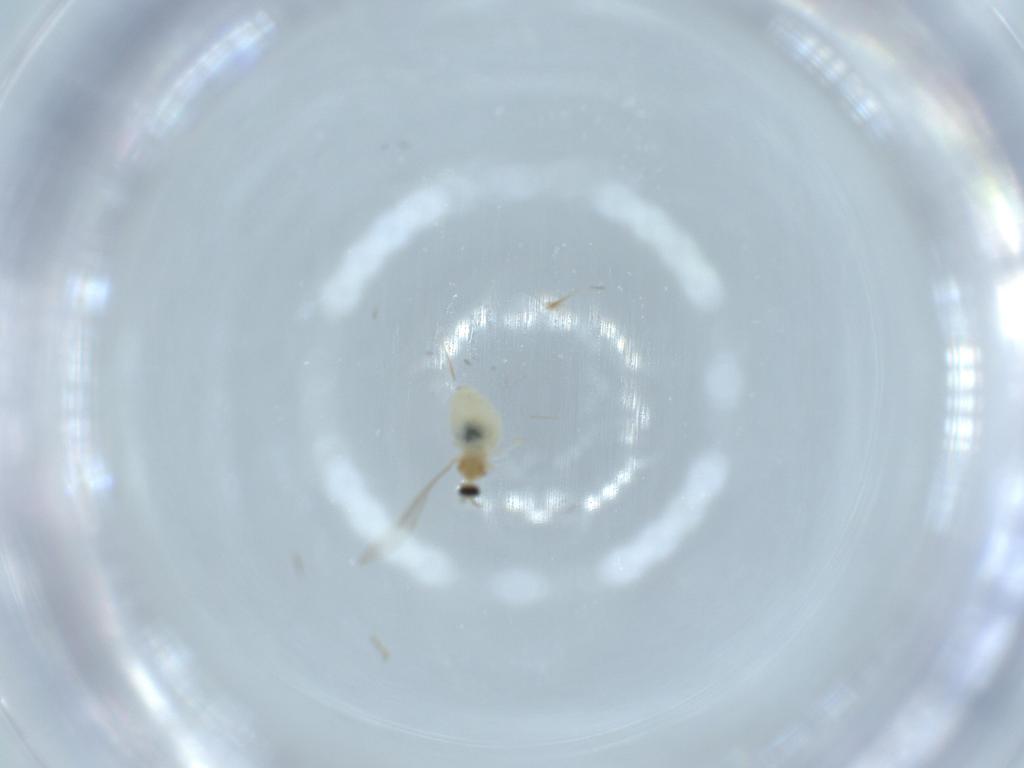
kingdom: Animalia
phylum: Arthropoda
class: Insecta
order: Diptera
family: Cecidomyiidae
